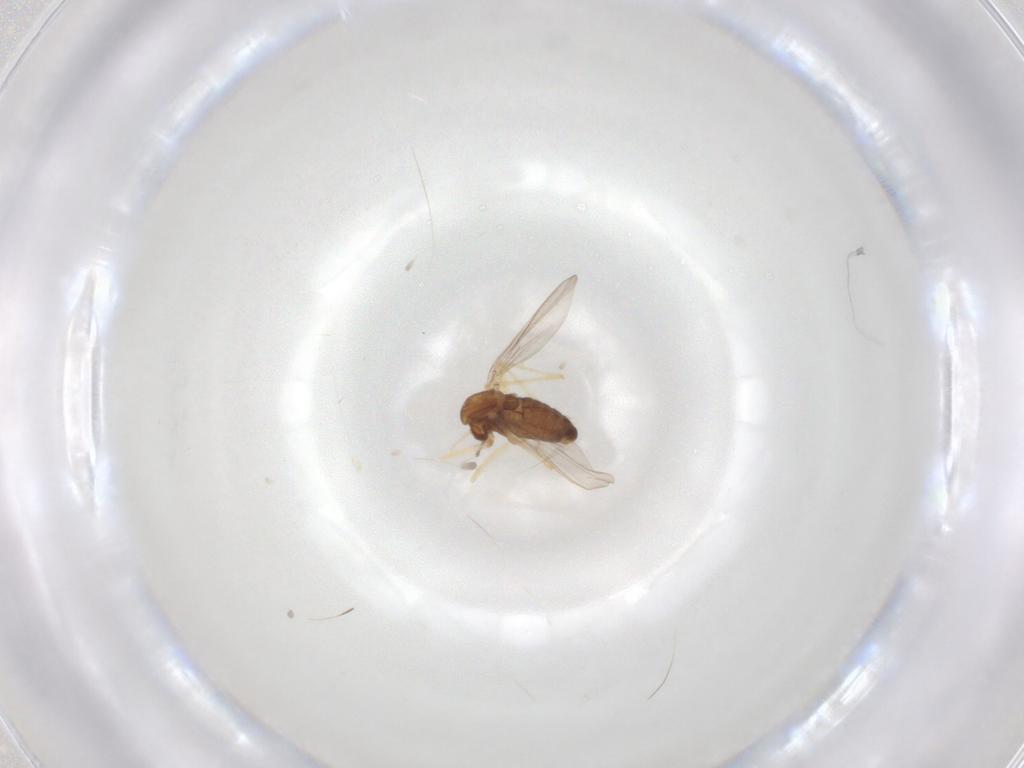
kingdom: Animalia
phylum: Arthropoda
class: Insecta
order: Diptera
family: Chironomidae
